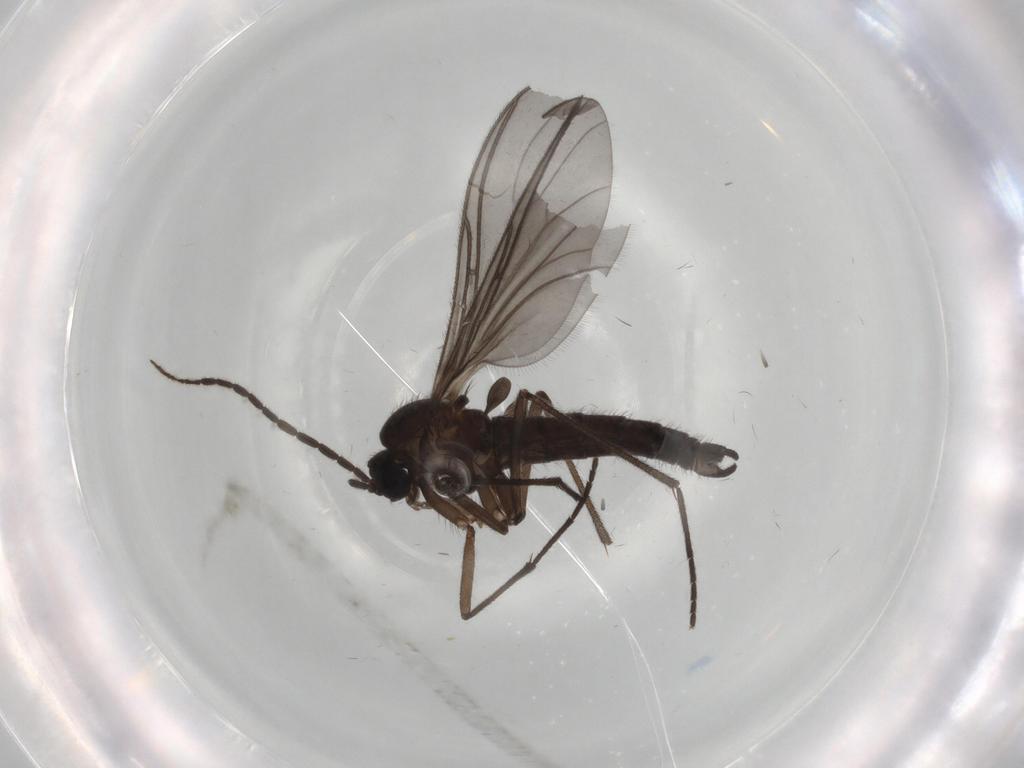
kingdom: Animalia
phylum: Arthropoda
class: Insecta
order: Diptera
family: Sciaridae
